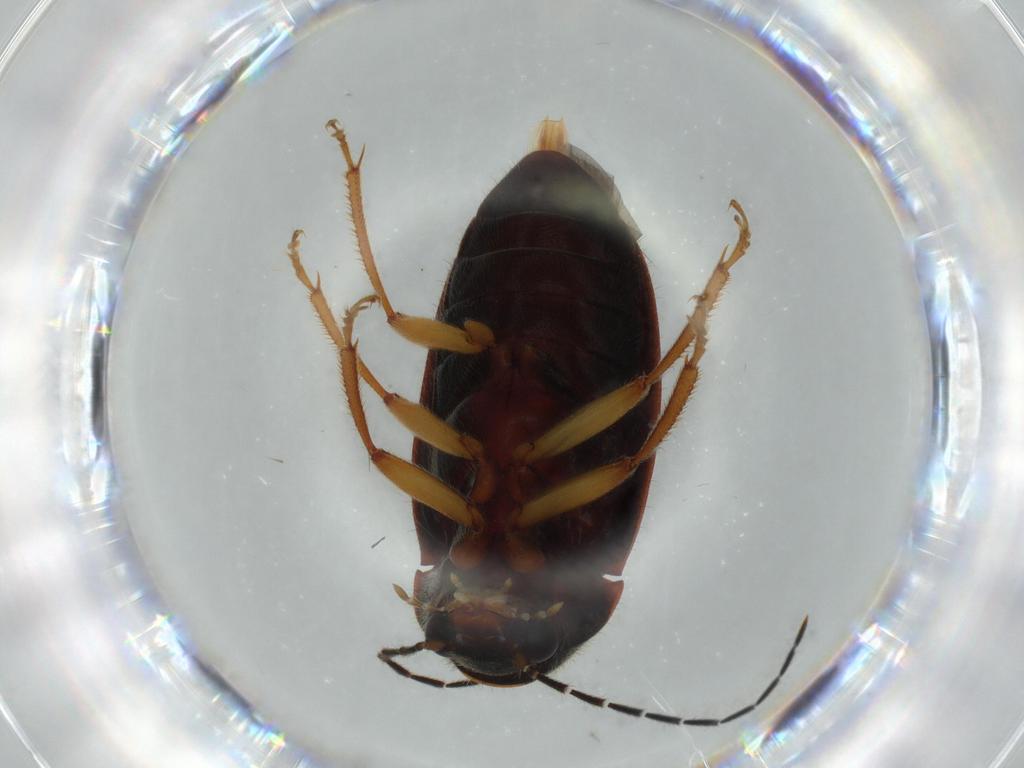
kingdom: Animalia
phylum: Arthropoda
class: Insecta
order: Coleoptera
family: Ptilodactylidae
